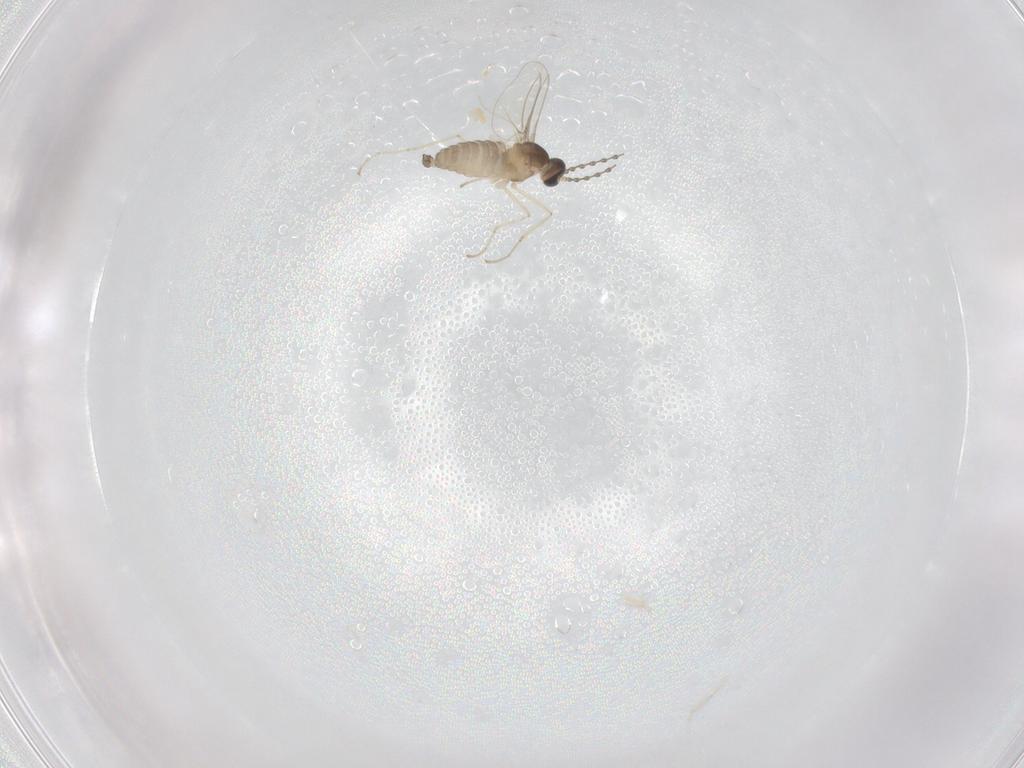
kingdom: Animalia
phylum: Arthropoda
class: Insecta
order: Diptera
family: Cecidomyiidae
